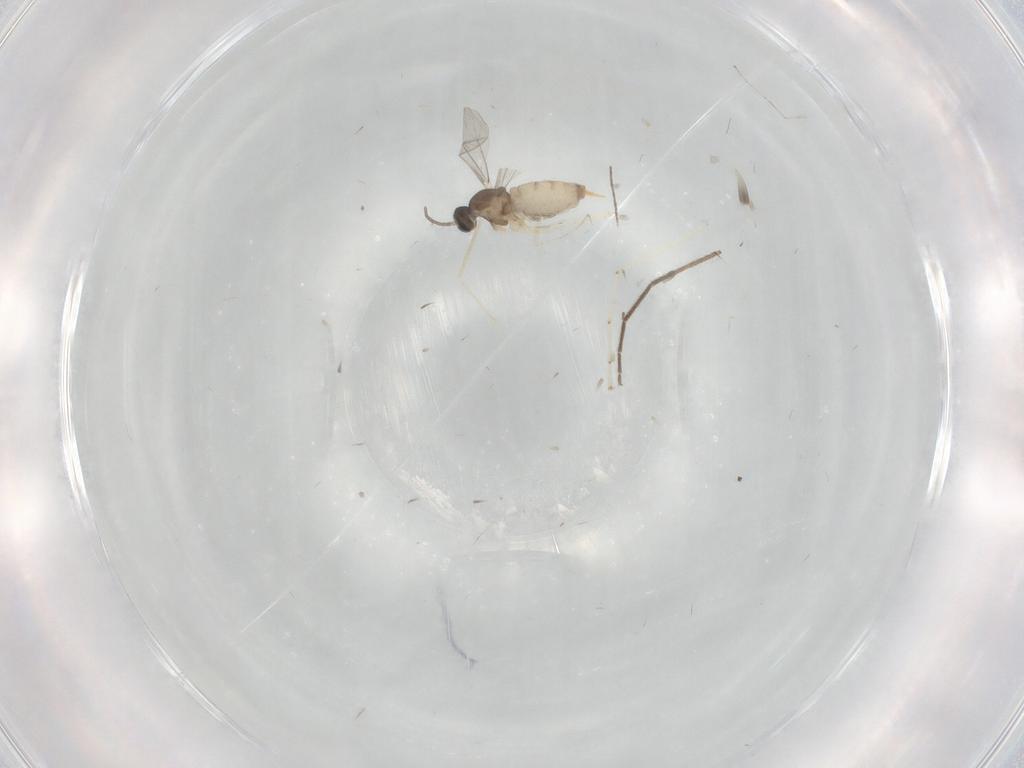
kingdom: Animalia
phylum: Arthropoda
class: Insecta
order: Diptera
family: Cecidomyiidae
